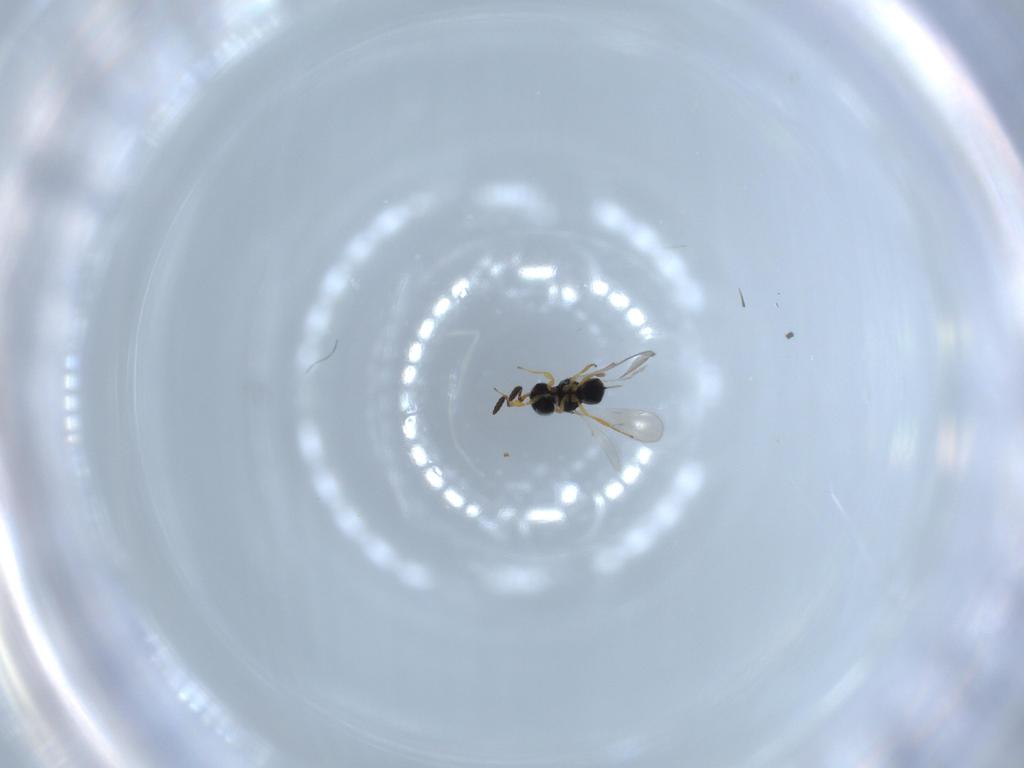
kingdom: Animalia
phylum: Arthropoda
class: Insecta
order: Hymenoptera
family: Scelionidae
